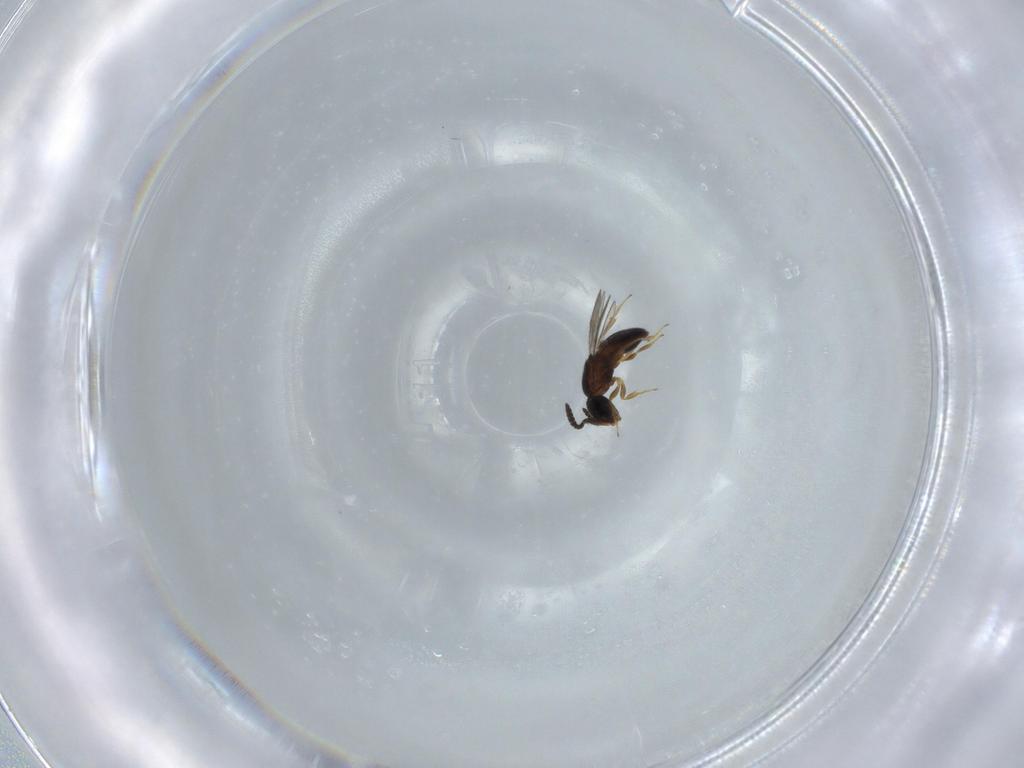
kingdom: Animalia
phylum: Arthropoda
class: Insecta
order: Hymenoptera
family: Scelionidae
